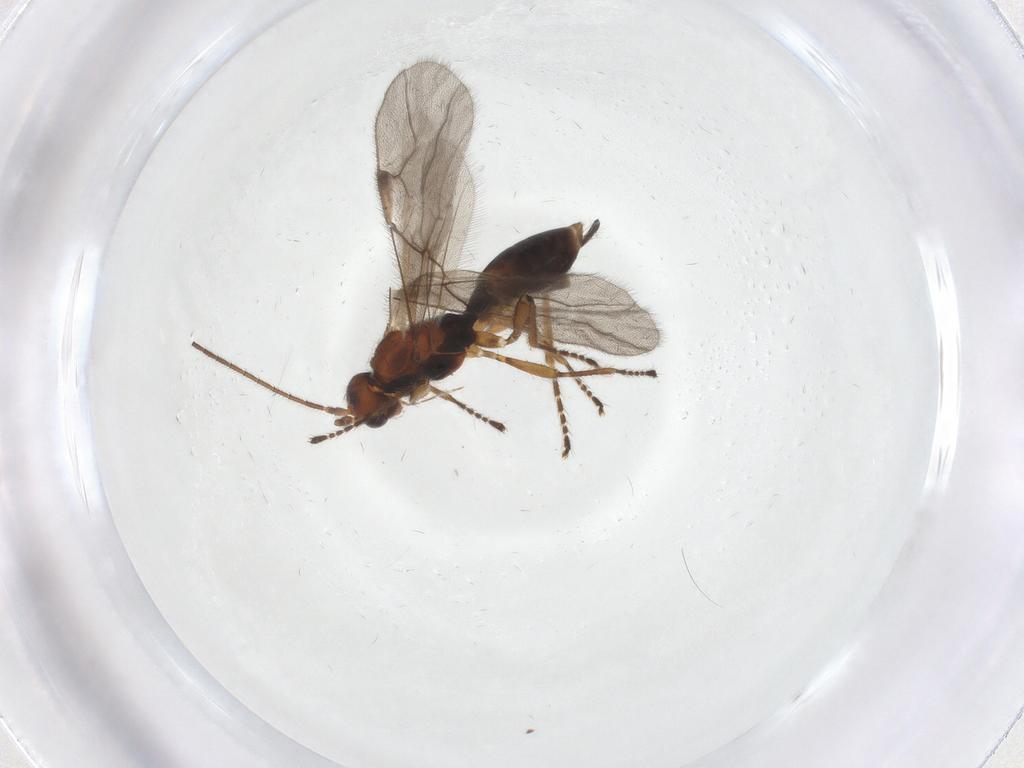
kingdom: Animalia
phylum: Arthropoda
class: Insecta
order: Hymenoptera
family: Braconidae
